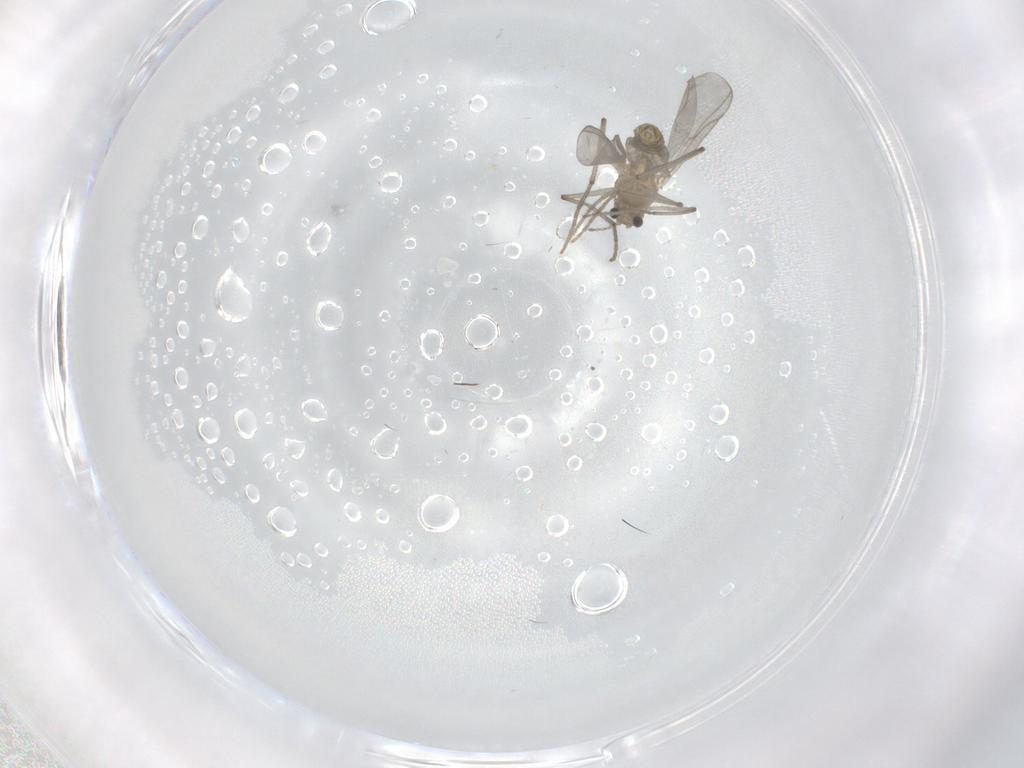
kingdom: Animalia
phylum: Arthropoda
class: Insecta
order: Diptera
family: Chironomidae
